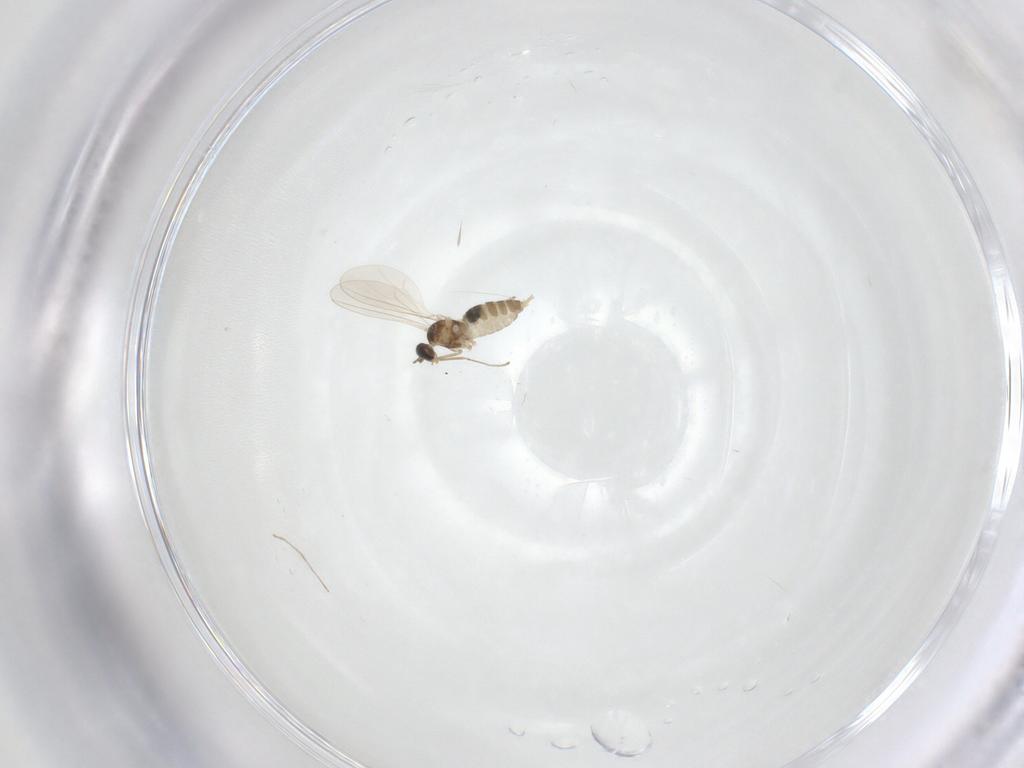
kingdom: Animalia
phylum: Arthropoda
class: Insecta
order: Diptera
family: Chironomidae
